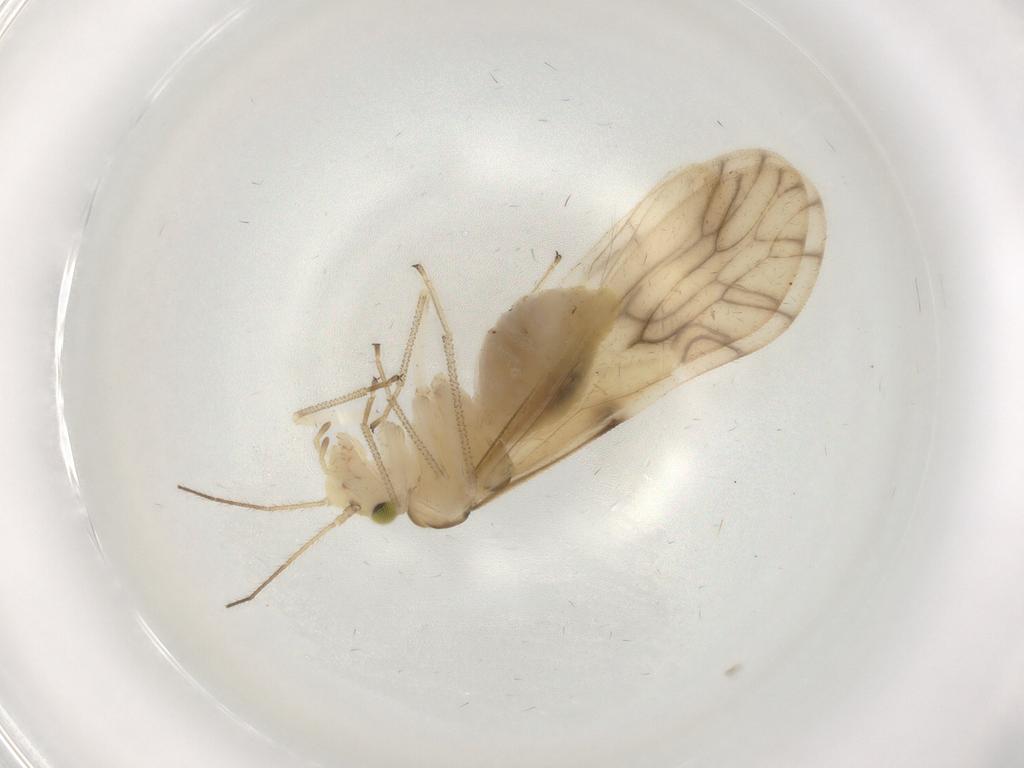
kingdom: Animalia
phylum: Arthropoda
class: Insecta
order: Psocodea
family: Caeciliusidae
